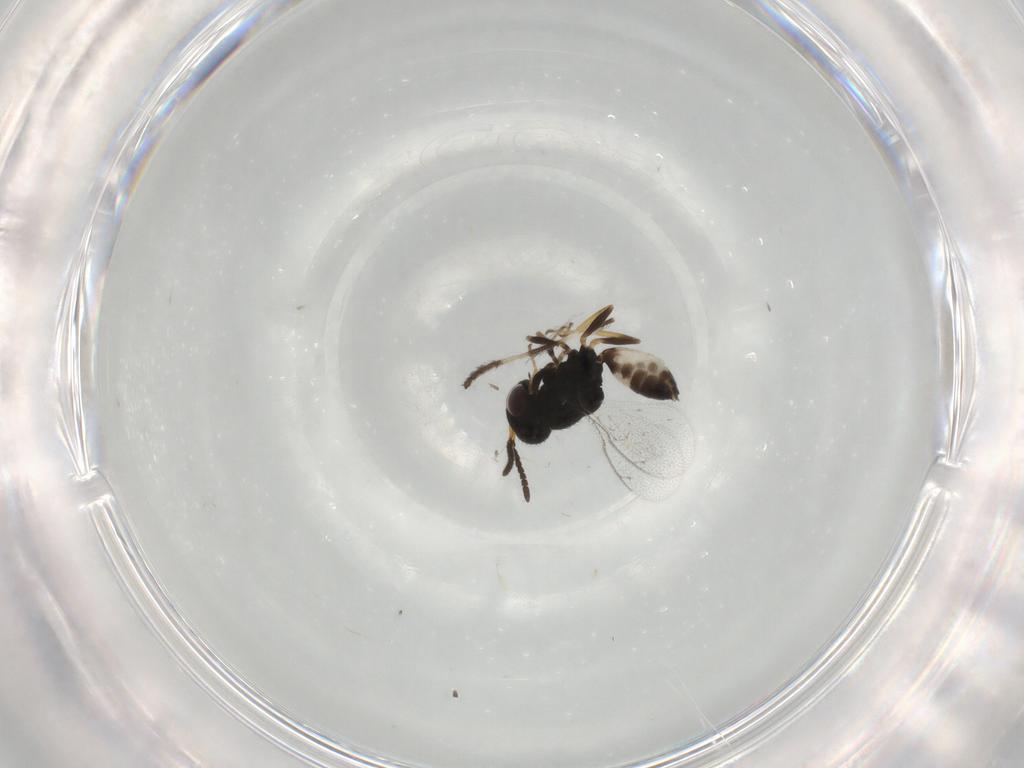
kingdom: Animalia
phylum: Arthropoda
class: Insecta
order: Hymenoptera
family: Pteromalidae
